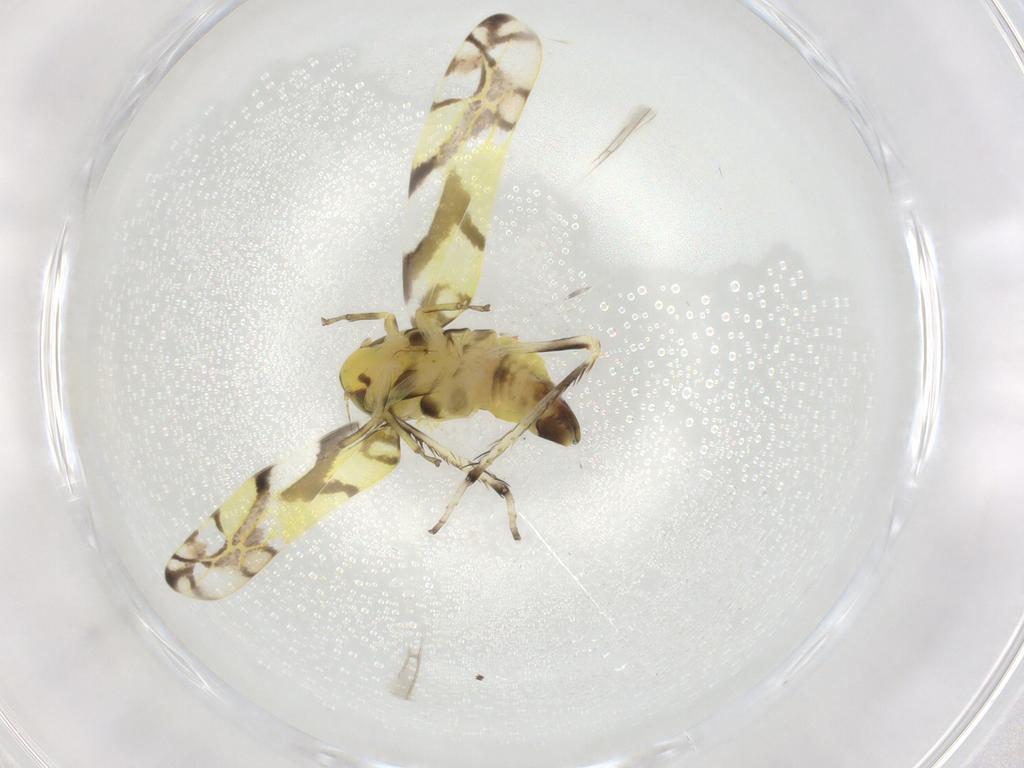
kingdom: Animalia
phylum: Arthropoda
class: Insecta
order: Hemiptera
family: Cicadellidae
